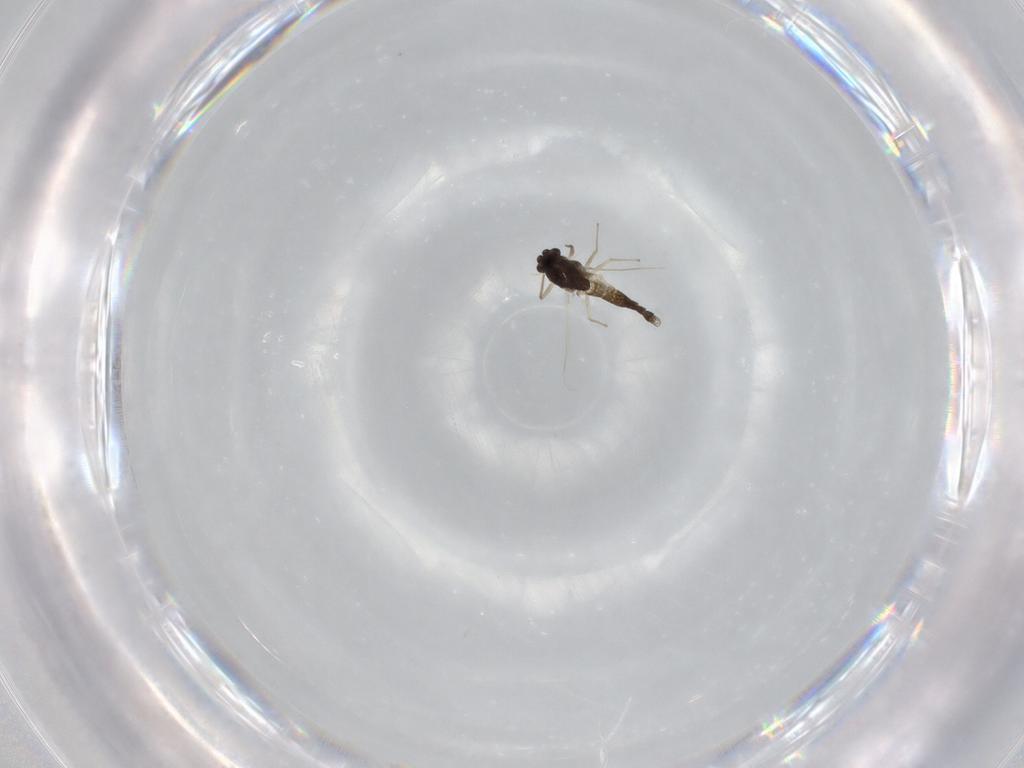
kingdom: Animalia
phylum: Arthropoda
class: Insecta
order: Diptera
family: Chironomidae
